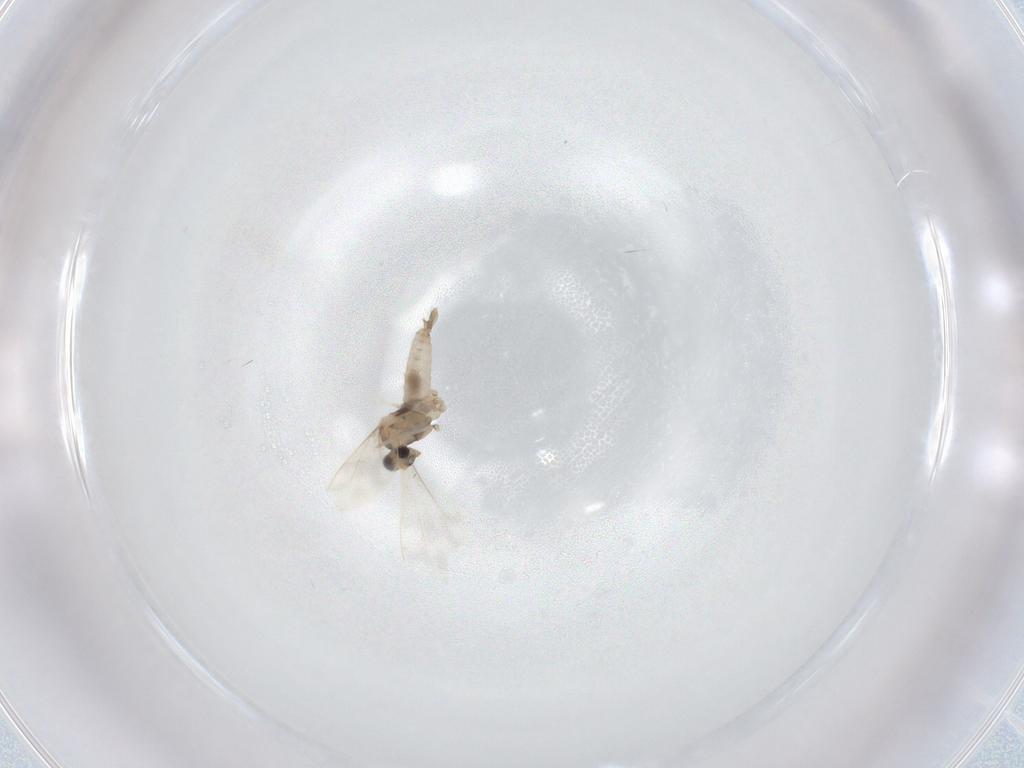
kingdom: Animalia
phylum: Arthropoda
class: Insecta
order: Diptera
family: Cecidomyiidae
